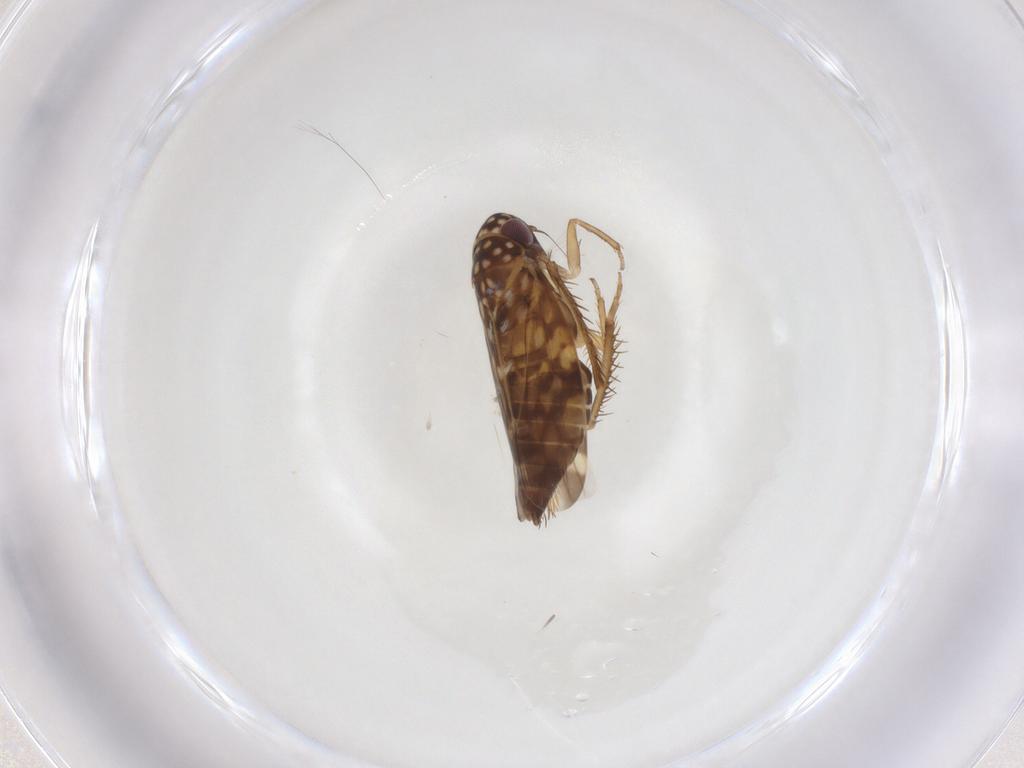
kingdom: Animalia
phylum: Arthropoda
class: Insecta
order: Hemiptera
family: Cicadellidae
